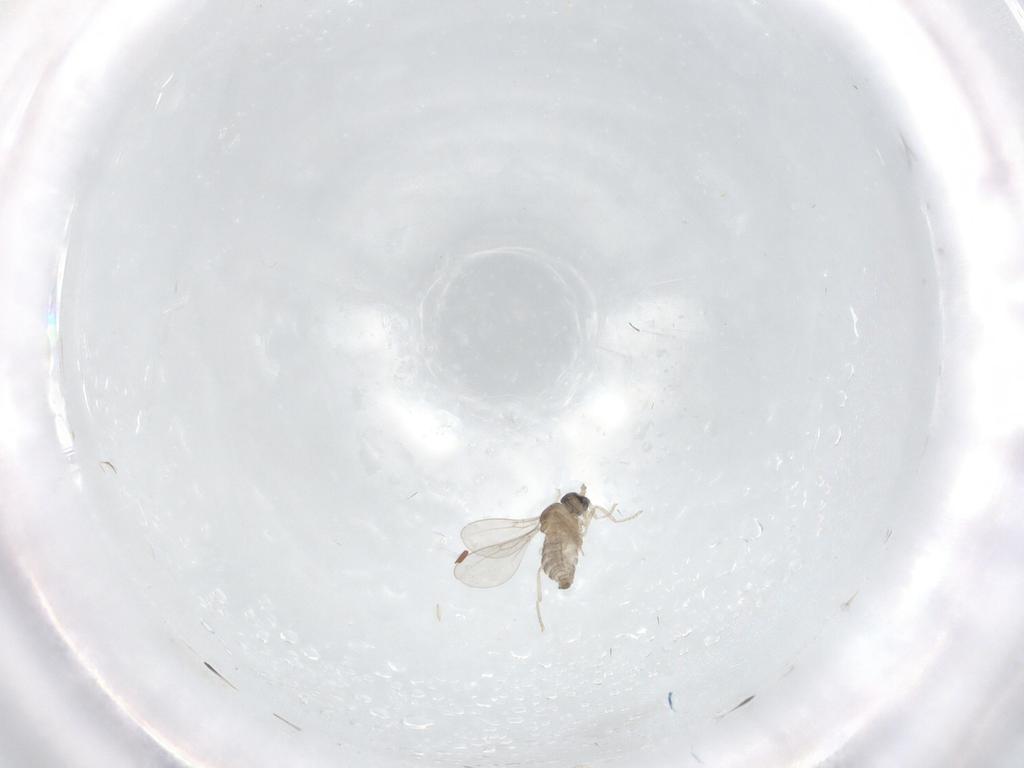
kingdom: Animalia
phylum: Arthropoda
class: Insecta
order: Diptera
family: Cecidomyiidae
